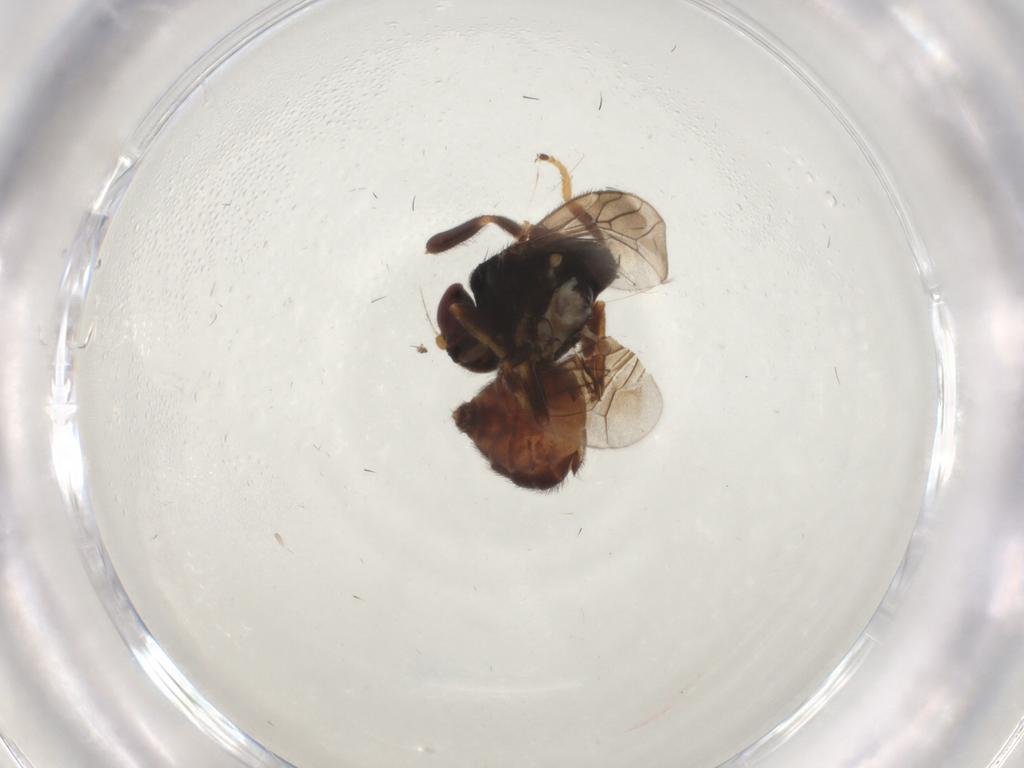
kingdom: Animalia
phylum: Arthropoda
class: Insecta
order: Diptera
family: Chloropidae
